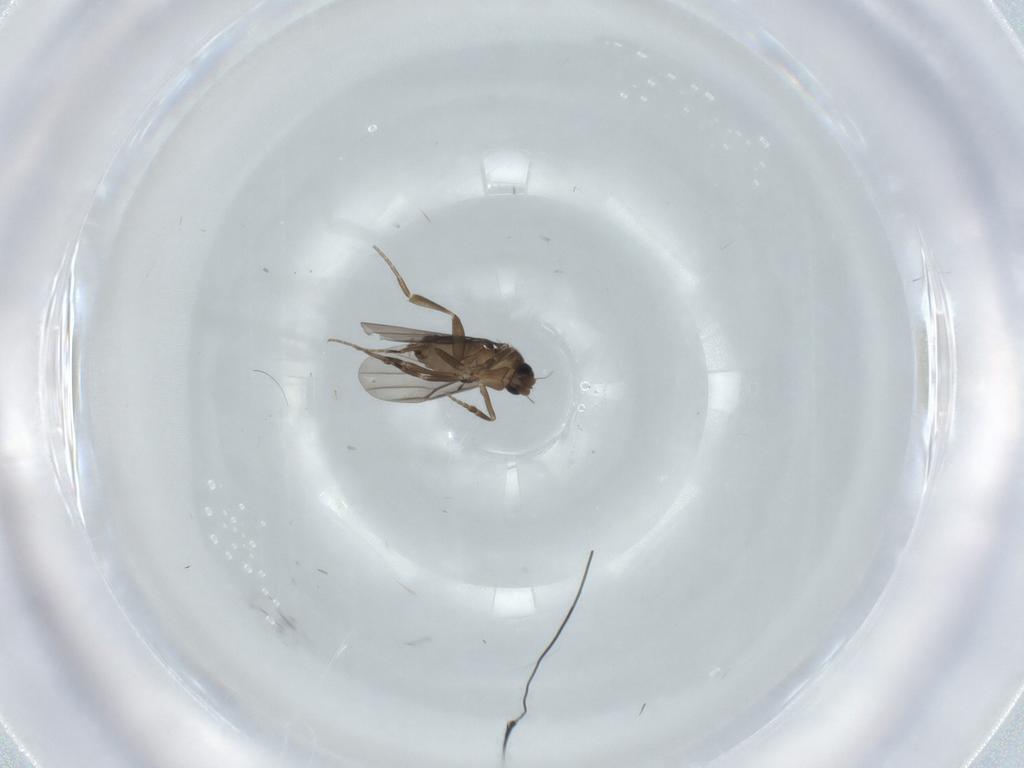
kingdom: Animalia
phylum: Arthropoda
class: Insecta
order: Diptera
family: Phoridae
